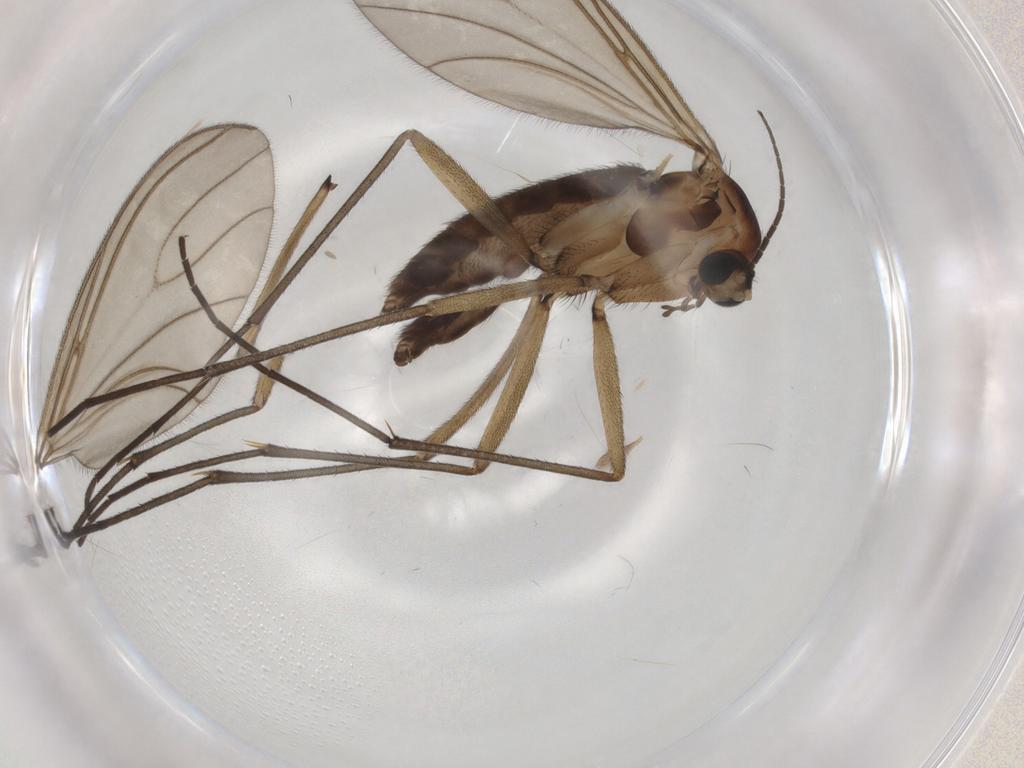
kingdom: Animalia
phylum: Arthropoda
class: Insecta
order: Diptera
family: Sciaridae
